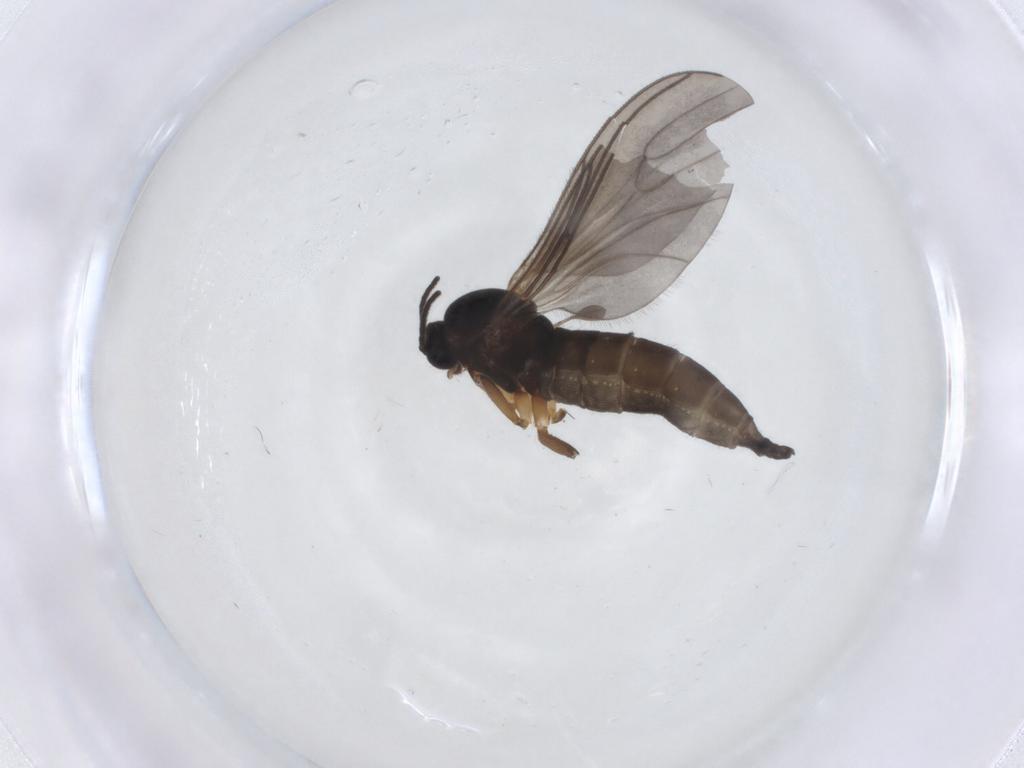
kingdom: Animalia
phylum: Arthropoda
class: Insecta
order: Diptera
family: Sciaridae
